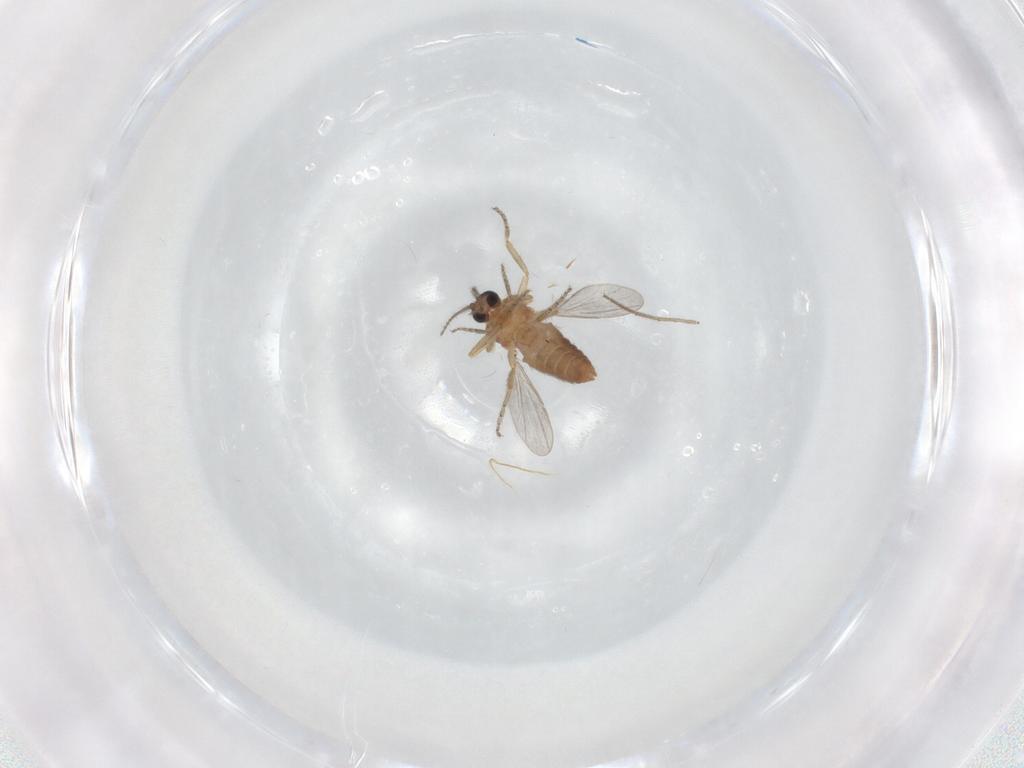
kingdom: Animalia
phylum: Arthropoda
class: Insecta
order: Diptera
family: Ceratopogonidae
